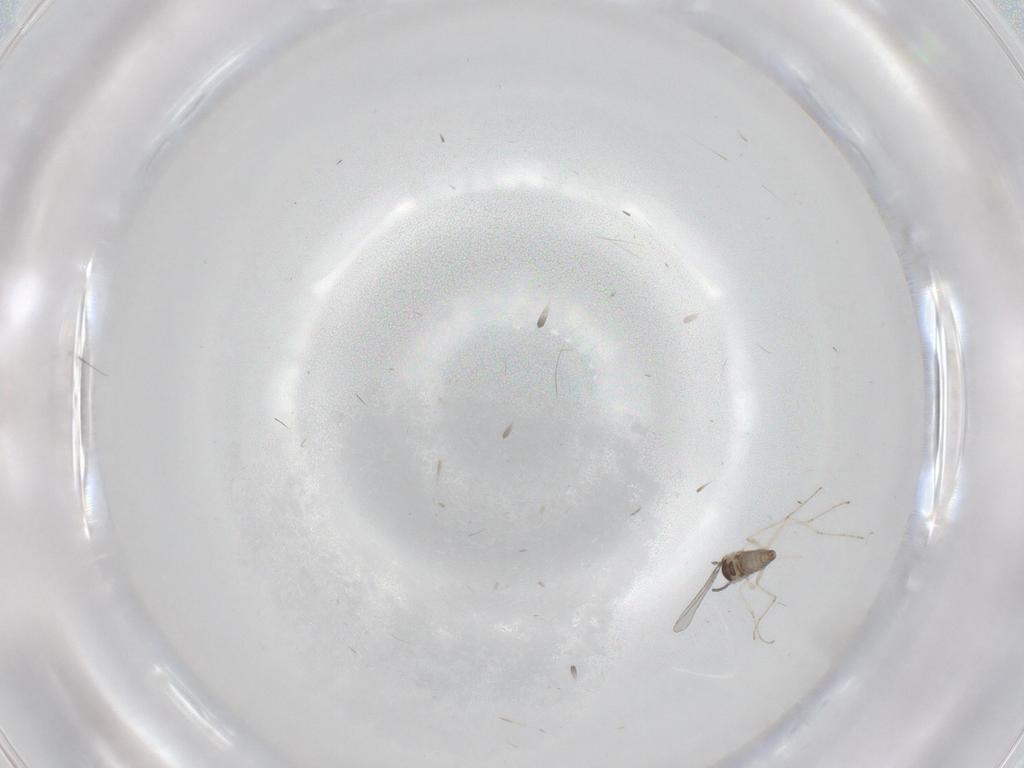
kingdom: Animalia
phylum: Arthropoda
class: Insecta
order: Diptera
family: Cecidomyiidae
